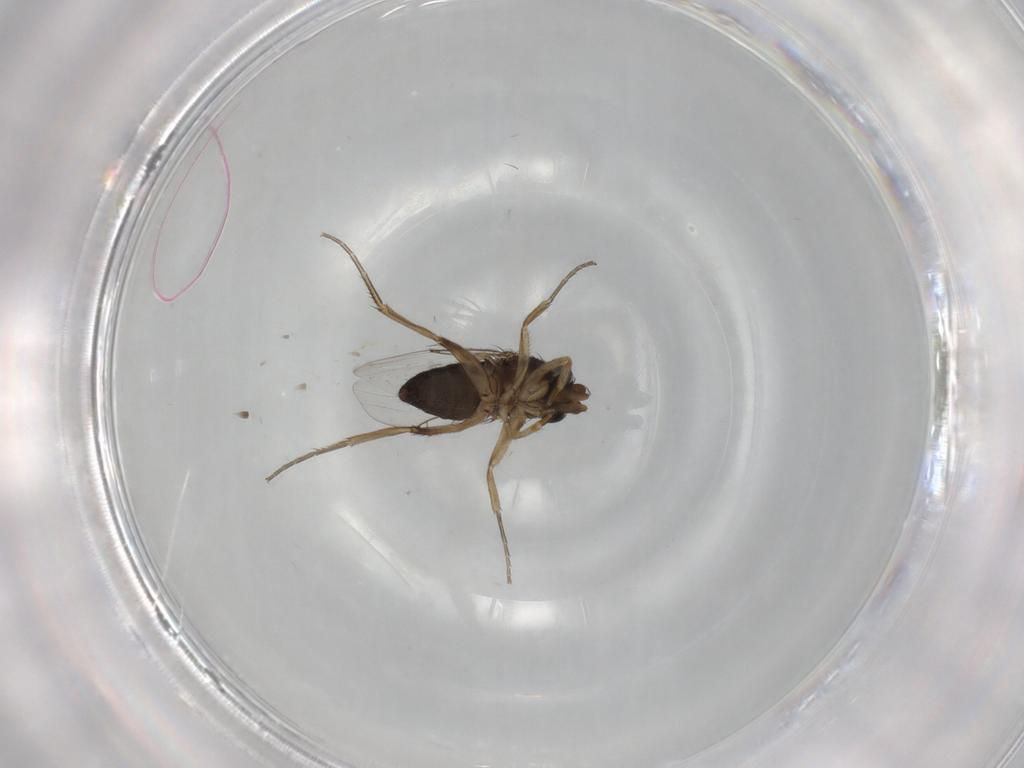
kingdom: Animalia
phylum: Arthropoda
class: Insecta
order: Diptera
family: Phoridae
